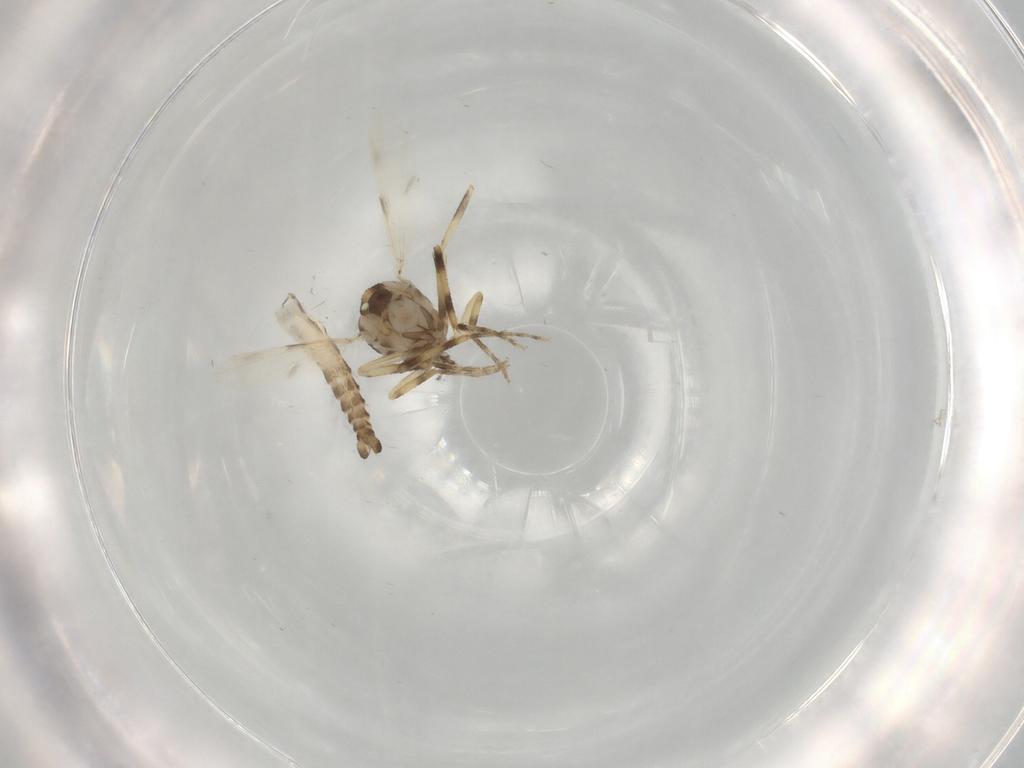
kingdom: Animalia
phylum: Arthropoda
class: Insecta
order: Diptera
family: Ceratopogonidae
